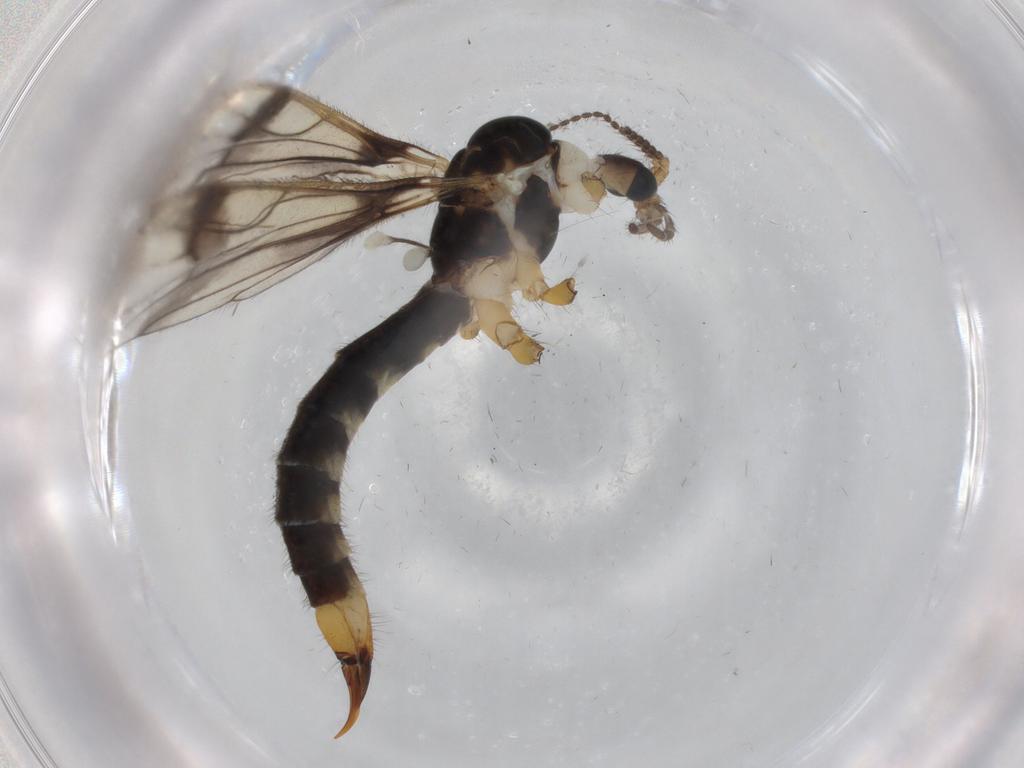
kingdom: Animalia
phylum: Arthropoda
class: Insecta
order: Diptera
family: Limoniidae
